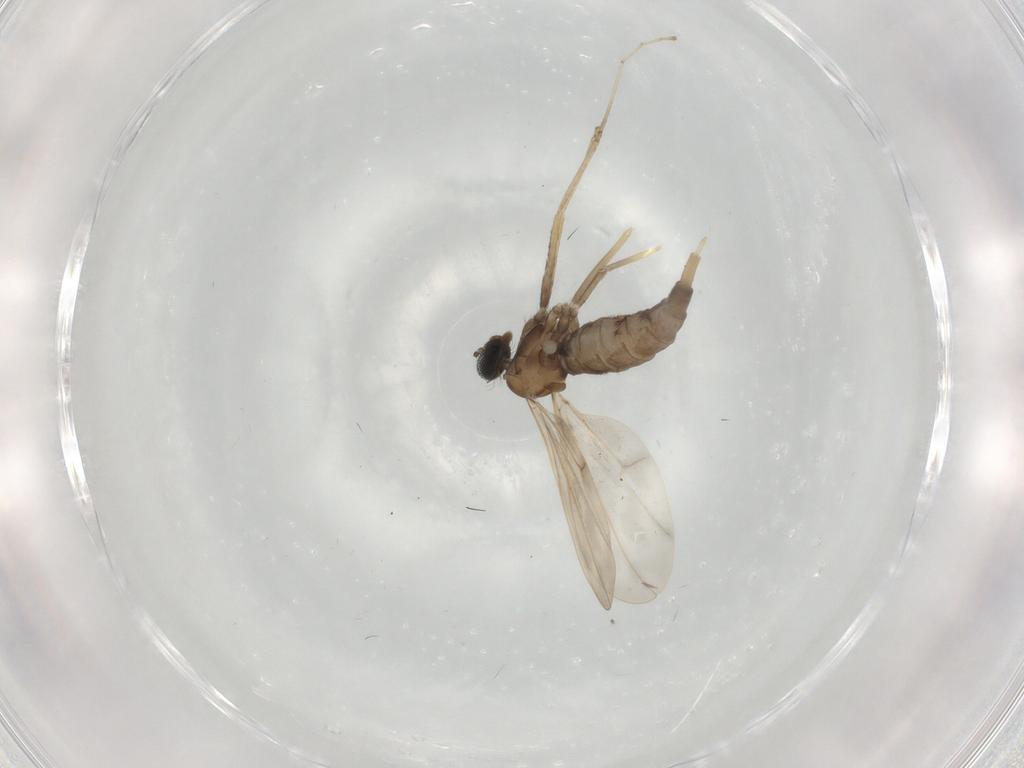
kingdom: Animalia
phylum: Arthropoda
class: Insecta
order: Diptera
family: Cecidomyiidae
